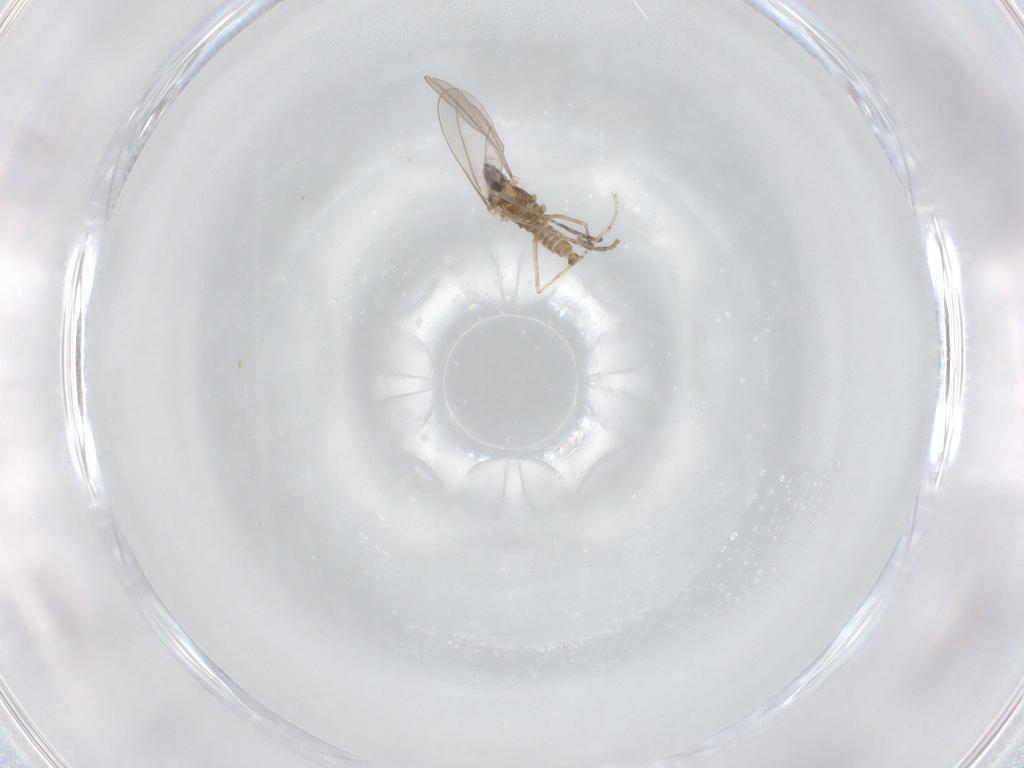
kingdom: Animalia
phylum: Arthropoda
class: Insecta
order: Diptera
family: Cecidomyiidae
